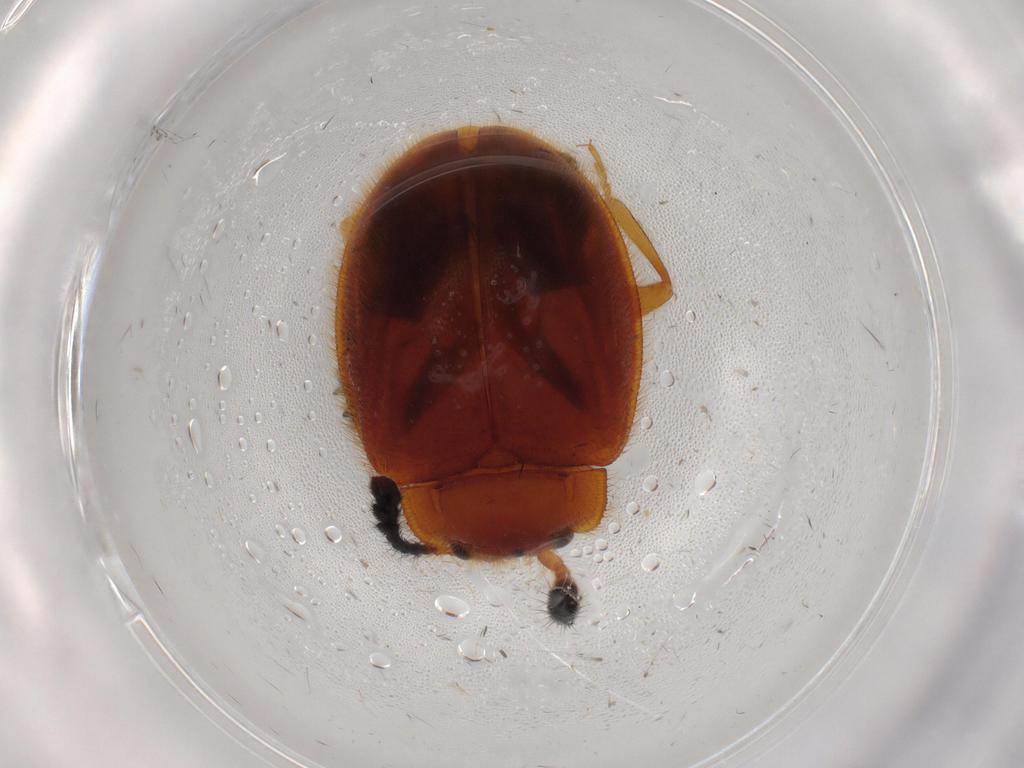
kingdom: Animalia
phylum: Arthropoda
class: Insecta
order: Coleoptera
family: Endomychidae
